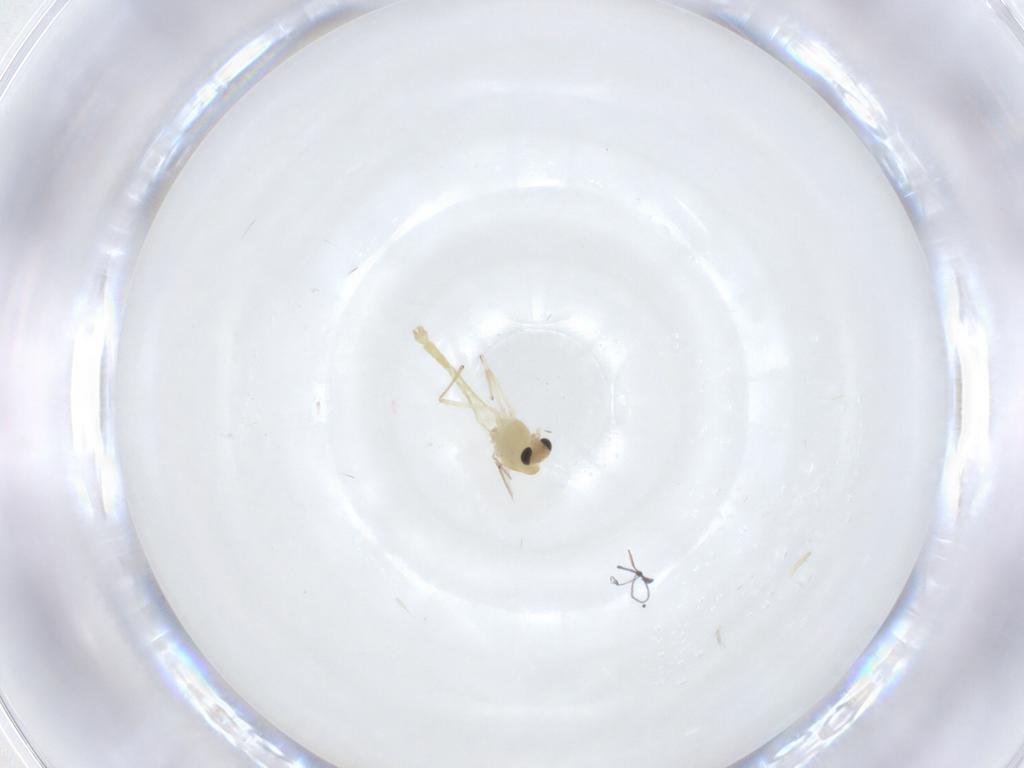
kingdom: Animalia
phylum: Arthropoda
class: Insecta
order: Diptera
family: Chironomidae
